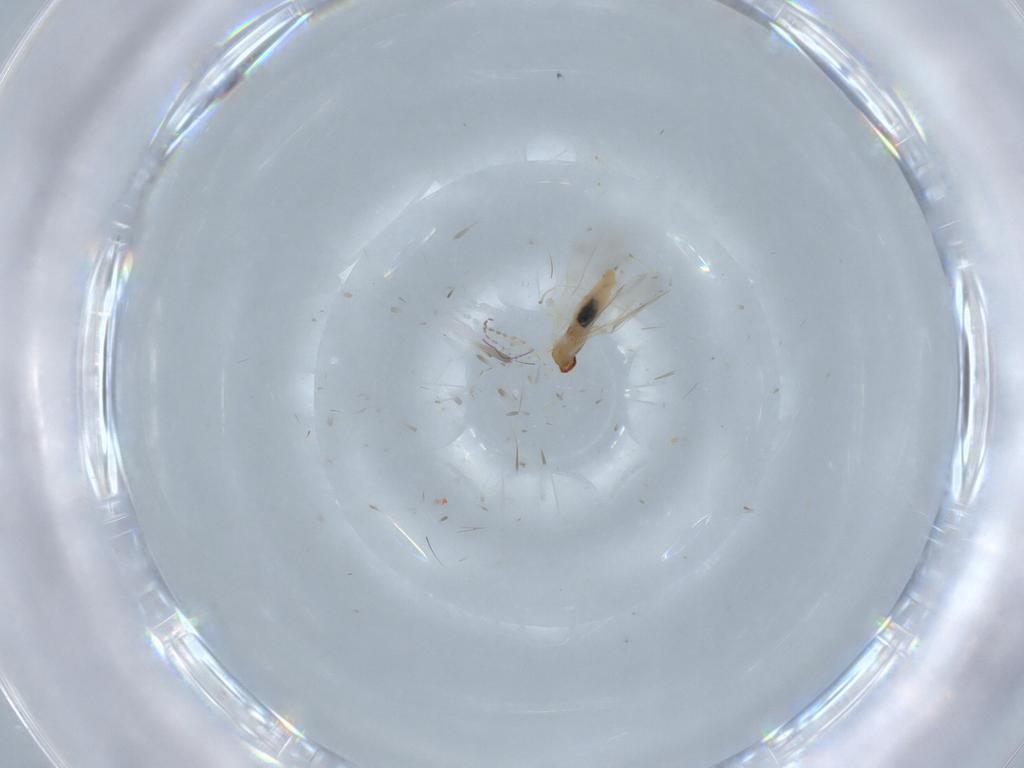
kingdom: Animalia
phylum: Arthropoda
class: Insecta
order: Diptera
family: Cecidomyiidae
